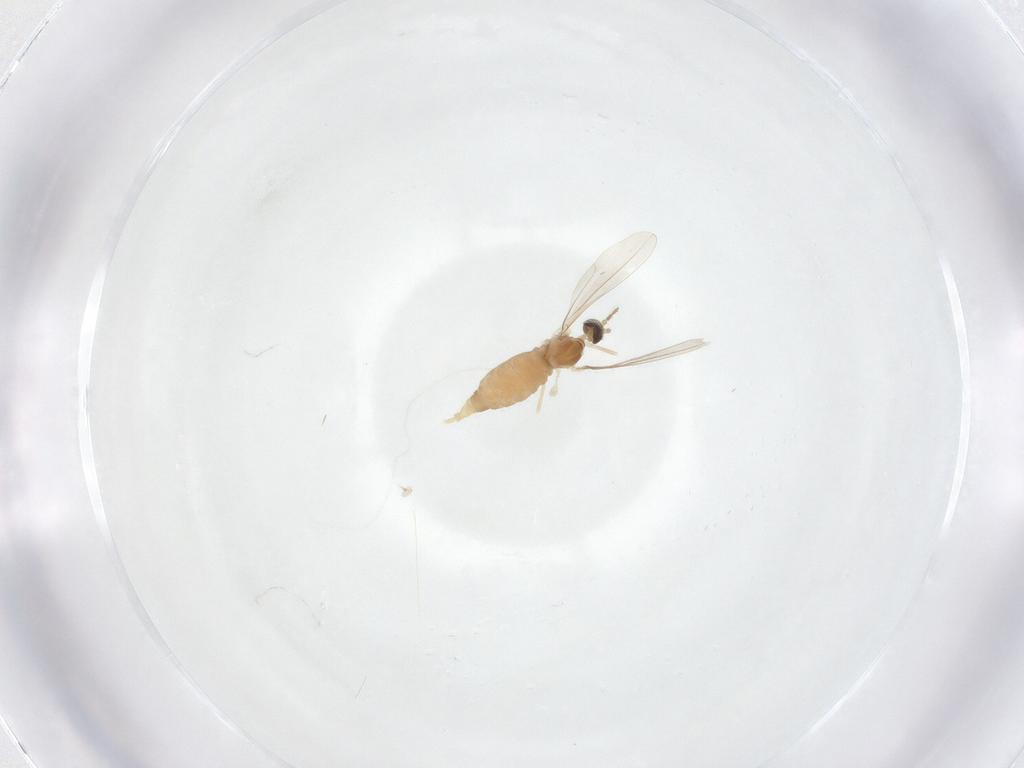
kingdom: Animalia
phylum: Arthropoda
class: Insecta
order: Diptera
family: Cecidomyiidae
